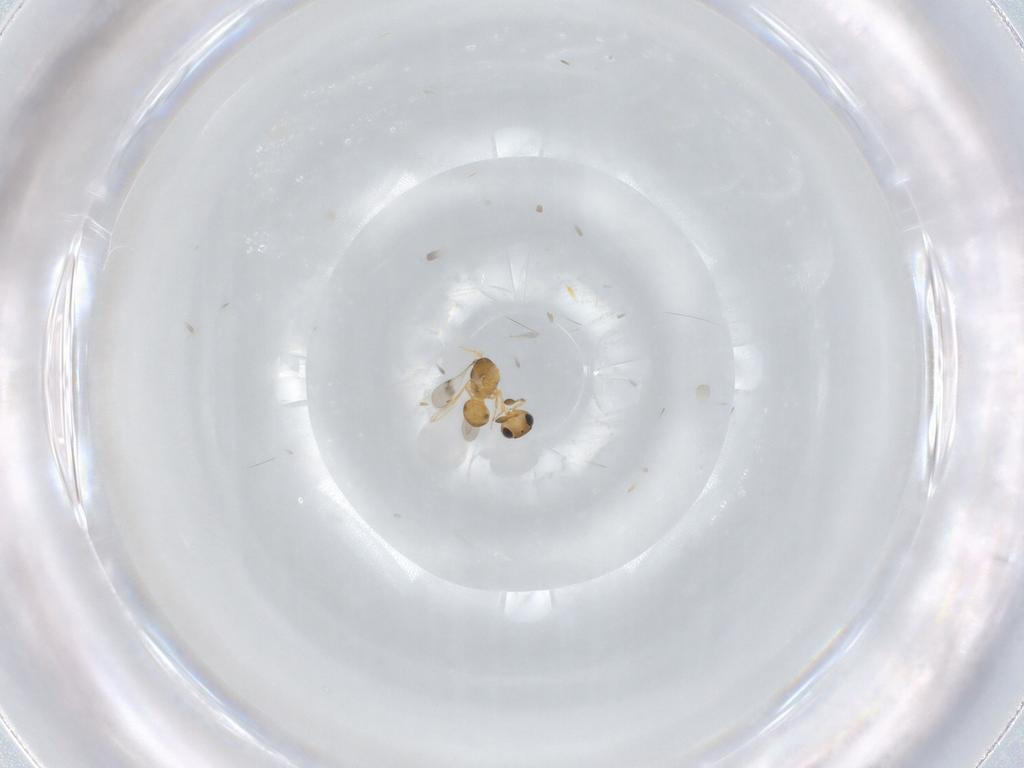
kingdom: Animalia
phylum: Arthropoda
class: Insecta
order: Hymenoptera
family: Scelionidae
